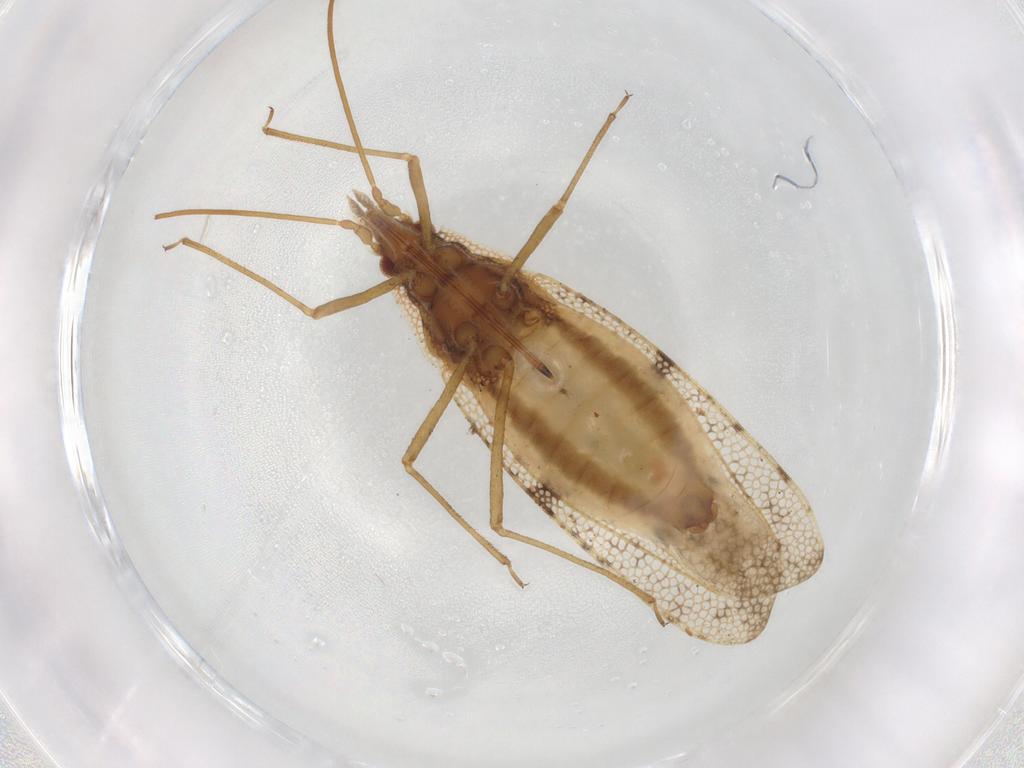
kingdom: Animalia
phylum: Arthropoda
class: Insecta
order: Hemiptera
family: Tingidae
